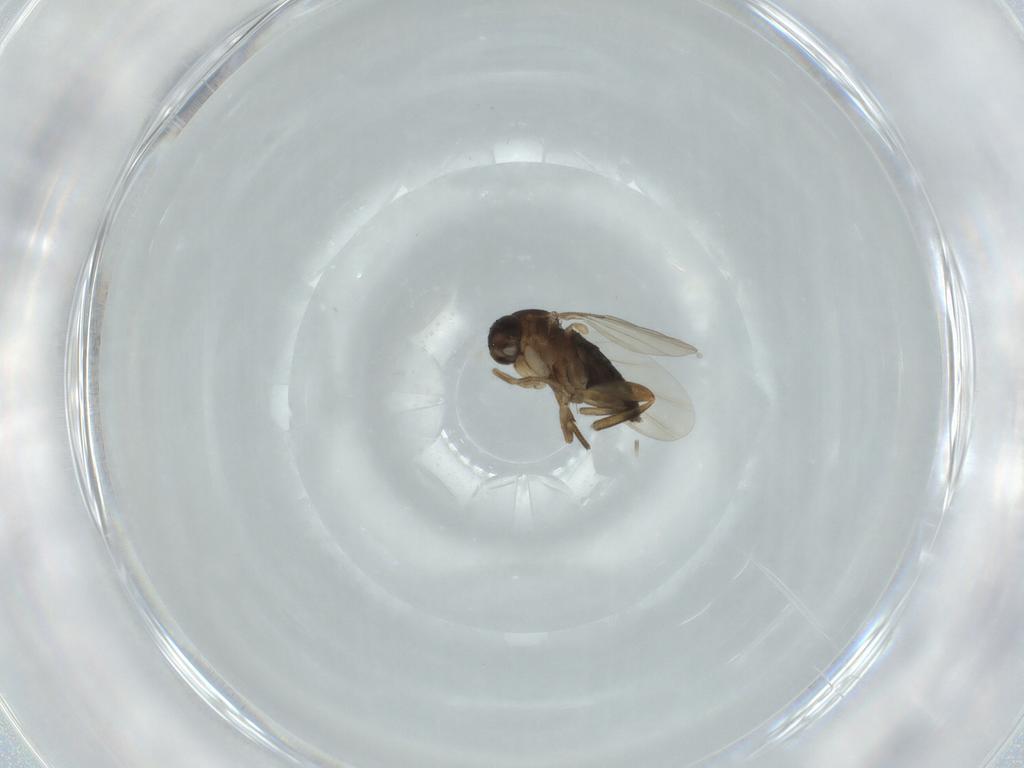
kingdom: Animalia
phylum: Arthropoda
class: Insecta
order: Diptera
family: Phoridae
